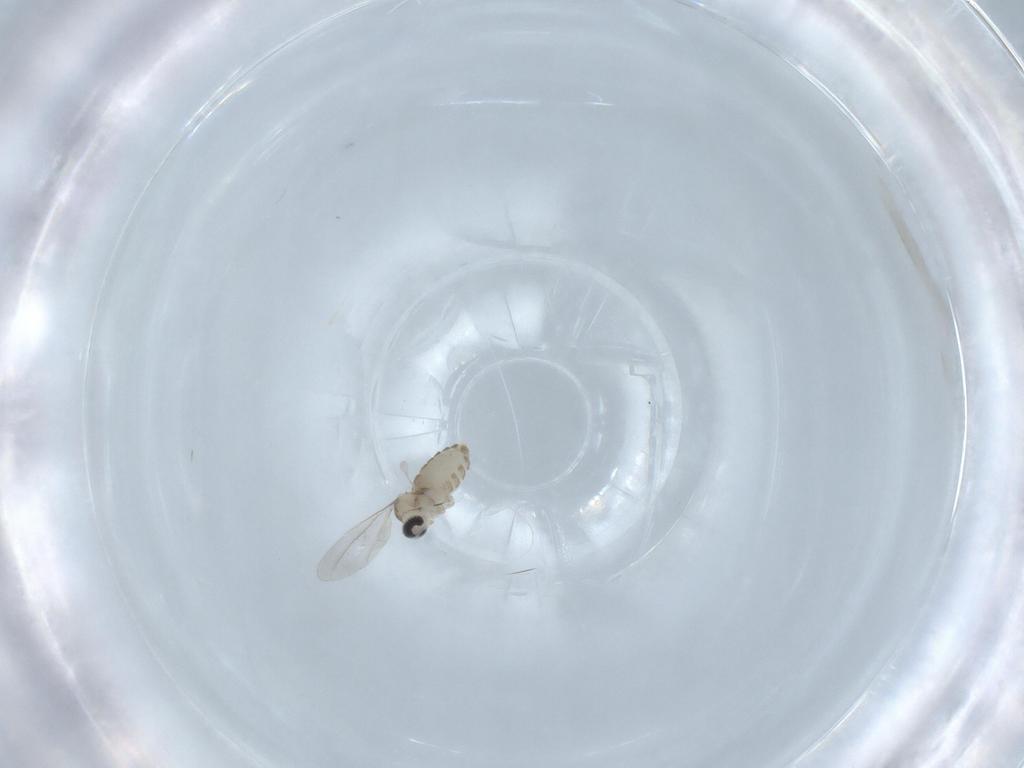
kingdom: Animalia
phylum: Arthropoda
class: Insecta
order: Diptera
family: Cecidomyiidae
